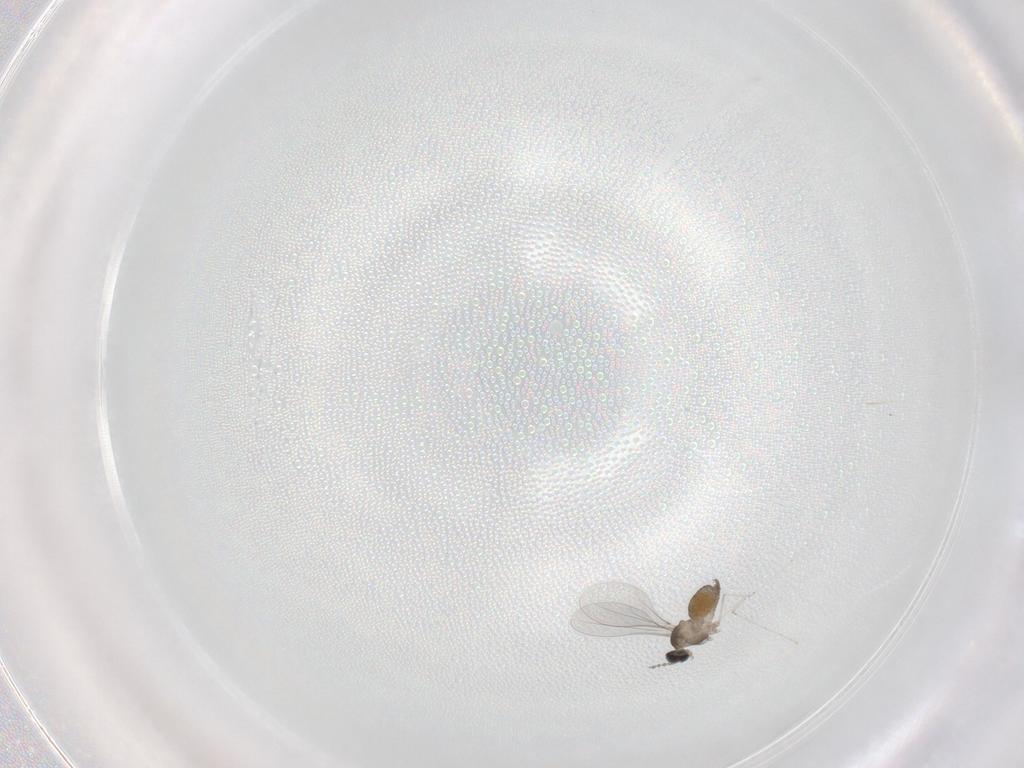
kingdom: Animalia
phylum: Arthropoda
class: Insecta
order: Diptera
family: Cecidomyiidae
